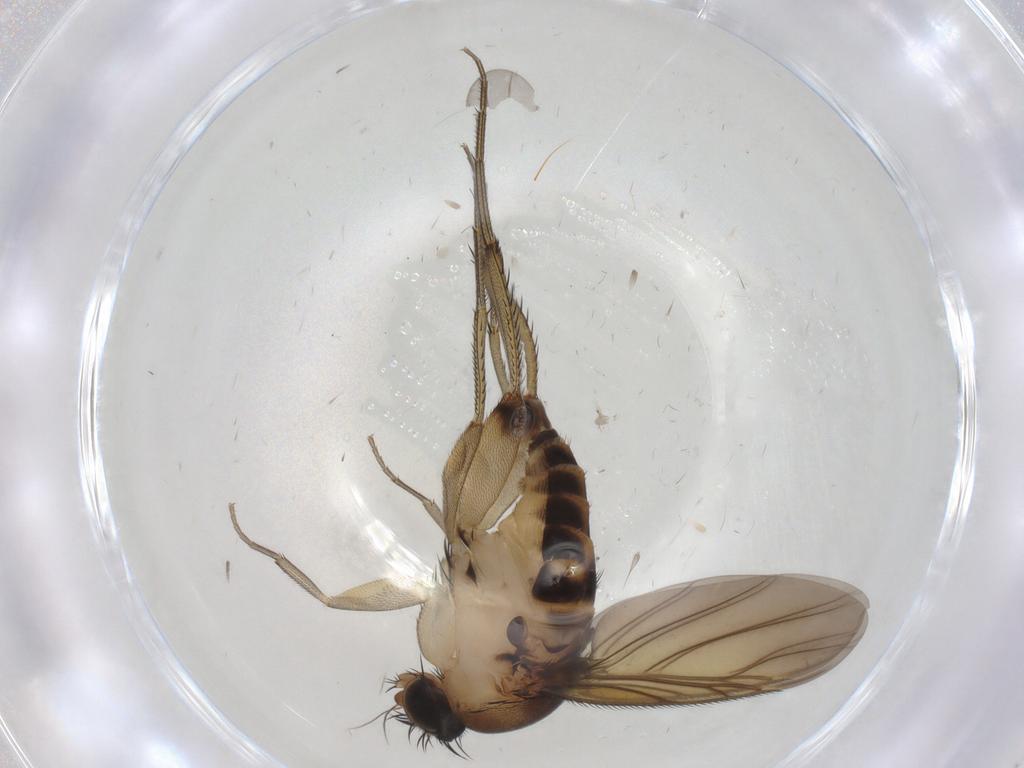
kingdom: Animalia
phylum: Arthropoda
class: Insecta
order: Diptera
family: Phoridae
